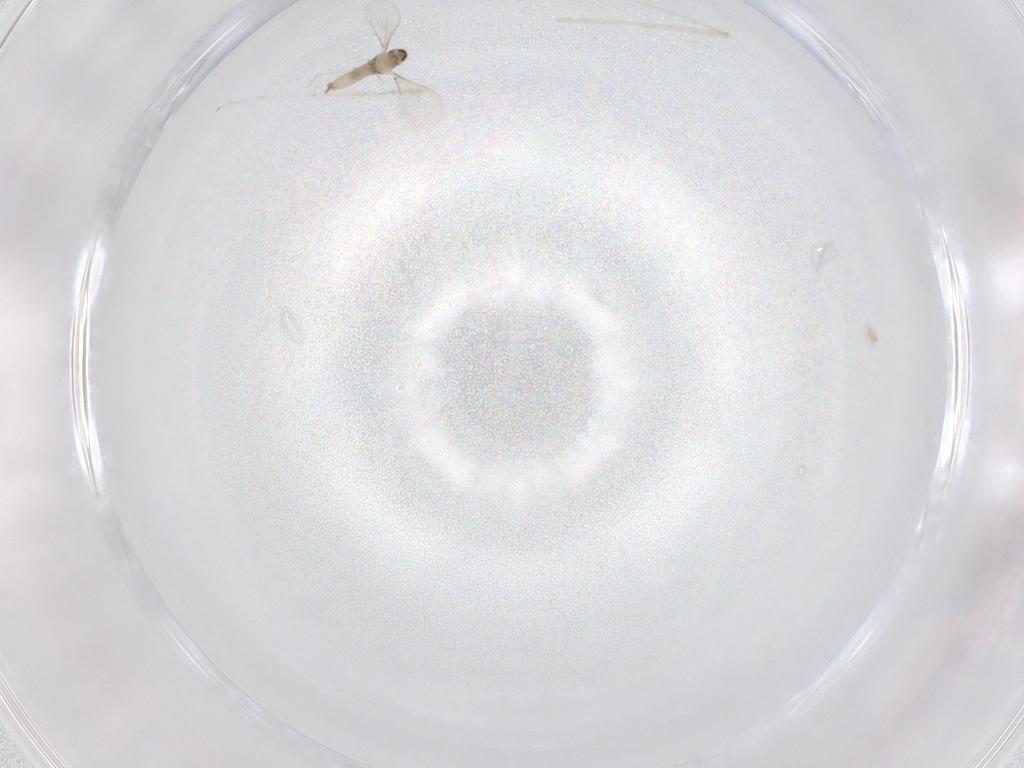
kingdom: Animalia
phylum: Arthropoda
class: Insecta
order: Diptera
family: Cecidomyiidae
